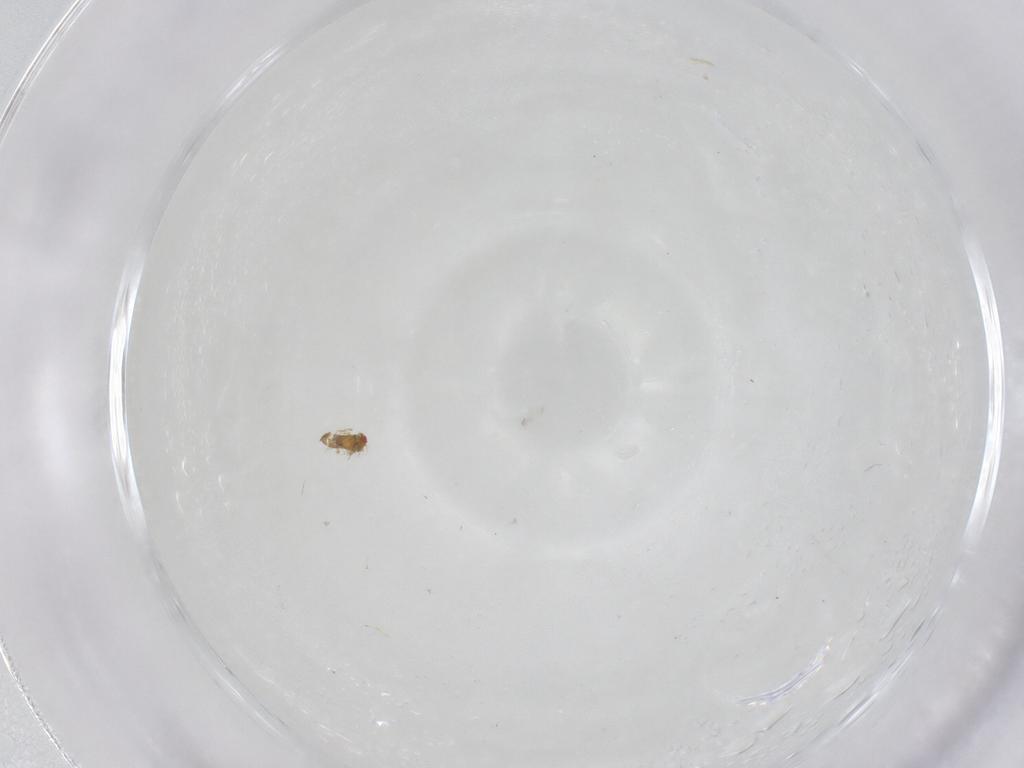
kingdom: Animalia
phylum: Arthropoda
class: Insecta
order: Hymenoptera
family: Trichogrammatidae
